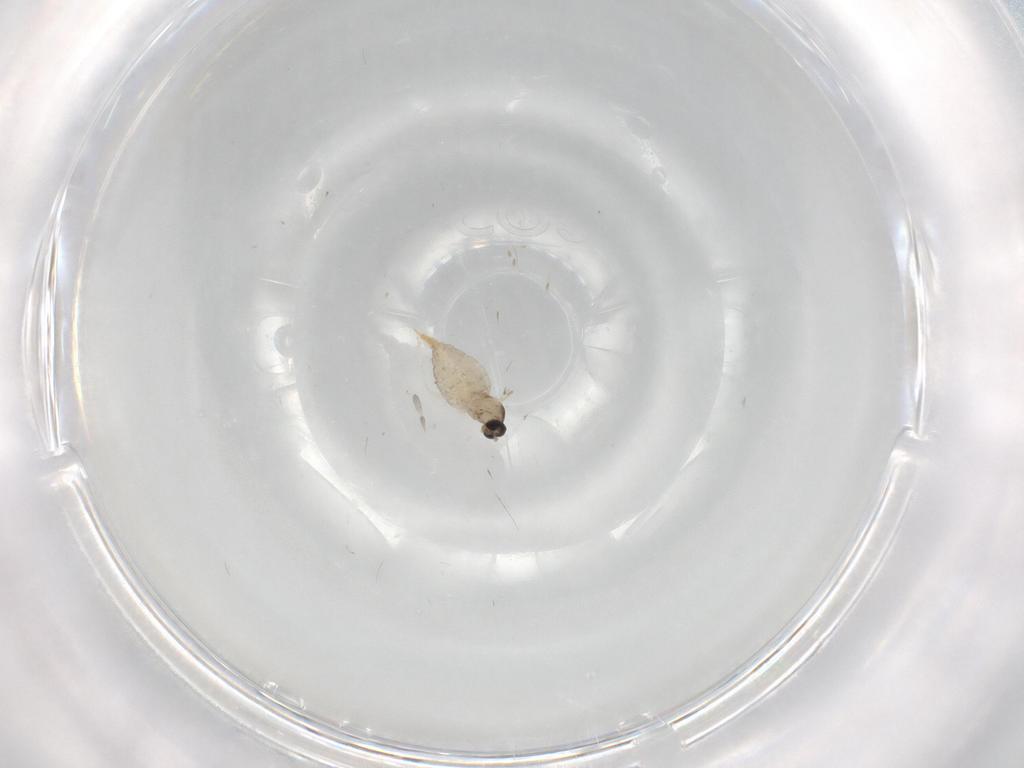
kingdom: Animalia
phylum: Arthropoda
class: Insecta
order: Diptera
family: Cecidomyiidae
